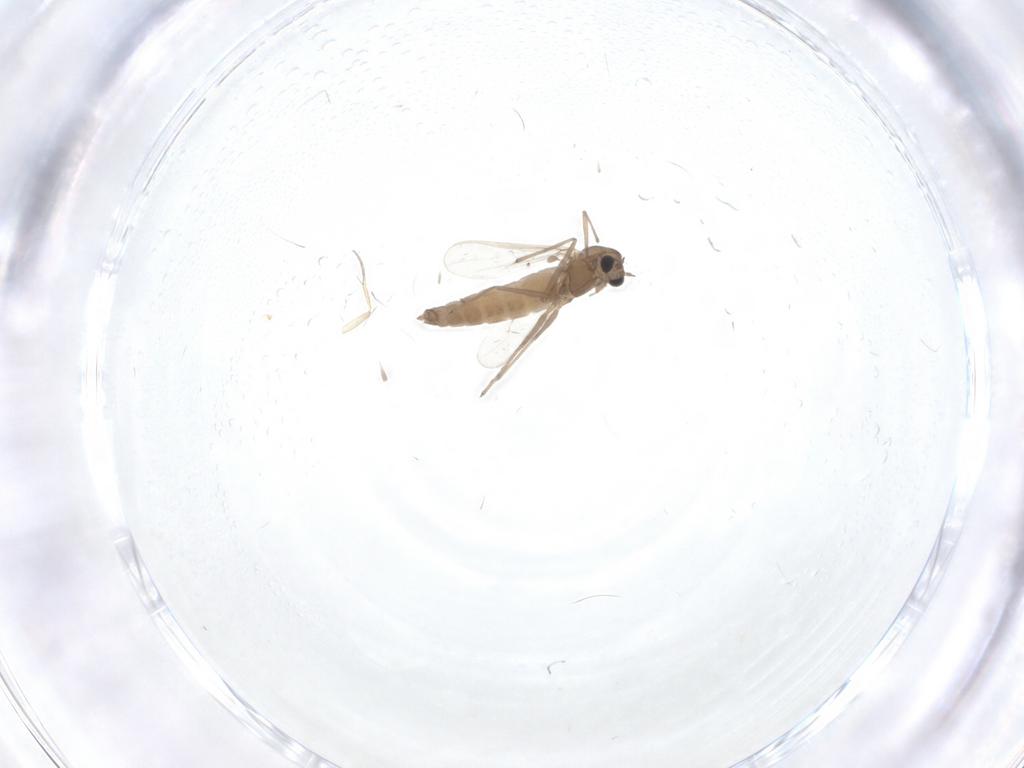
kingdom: Animalia
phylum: Arthropoda
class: Insecta
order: Diptera
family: Chironomidae
